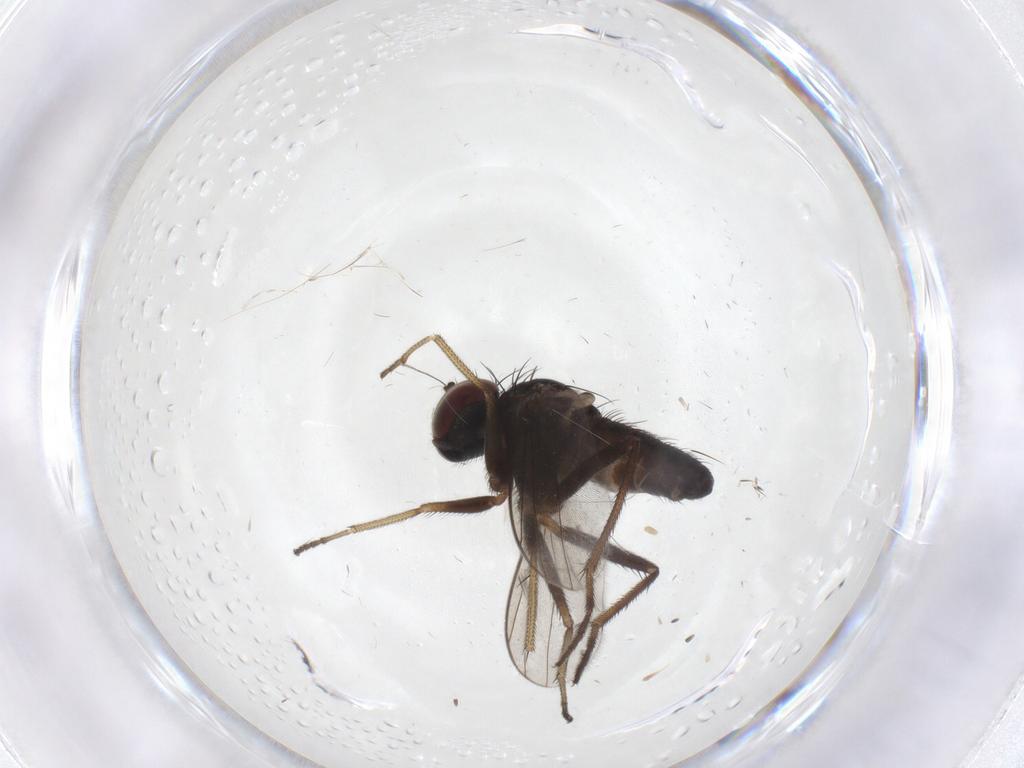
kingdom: Animalia
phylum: Arthropoda
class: Insecta
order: Diptera
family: Dolichopodidae
